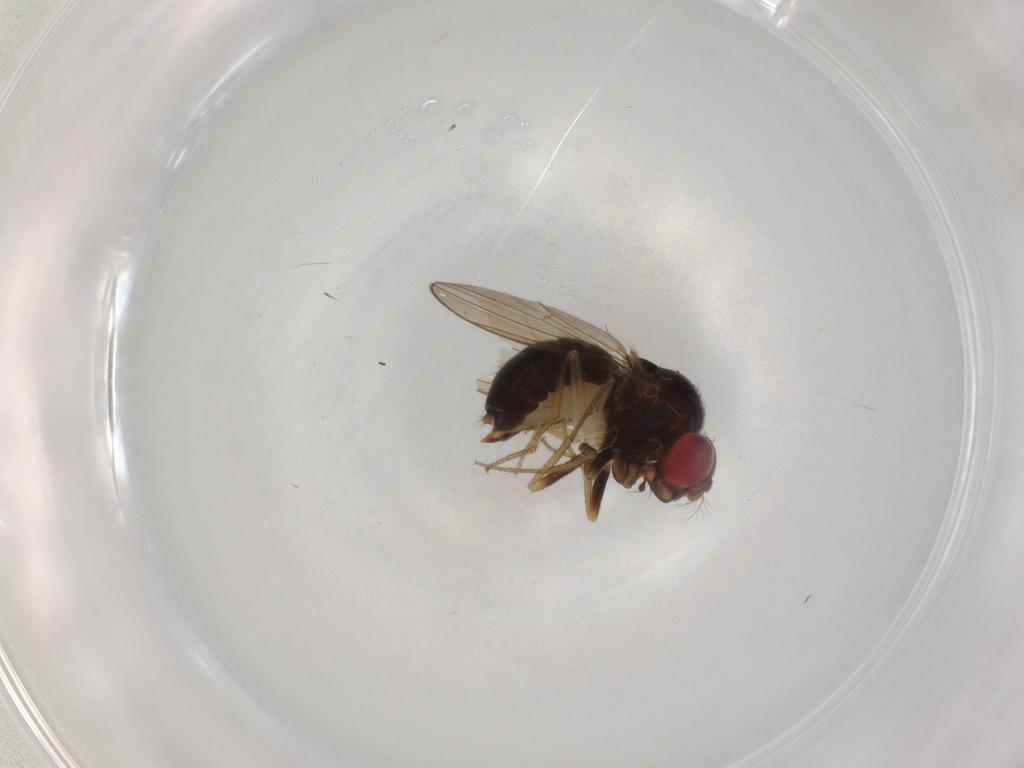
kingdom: Animalia
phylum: Arthropoda
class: Insecta
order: Diptera
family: Drosophilidae
